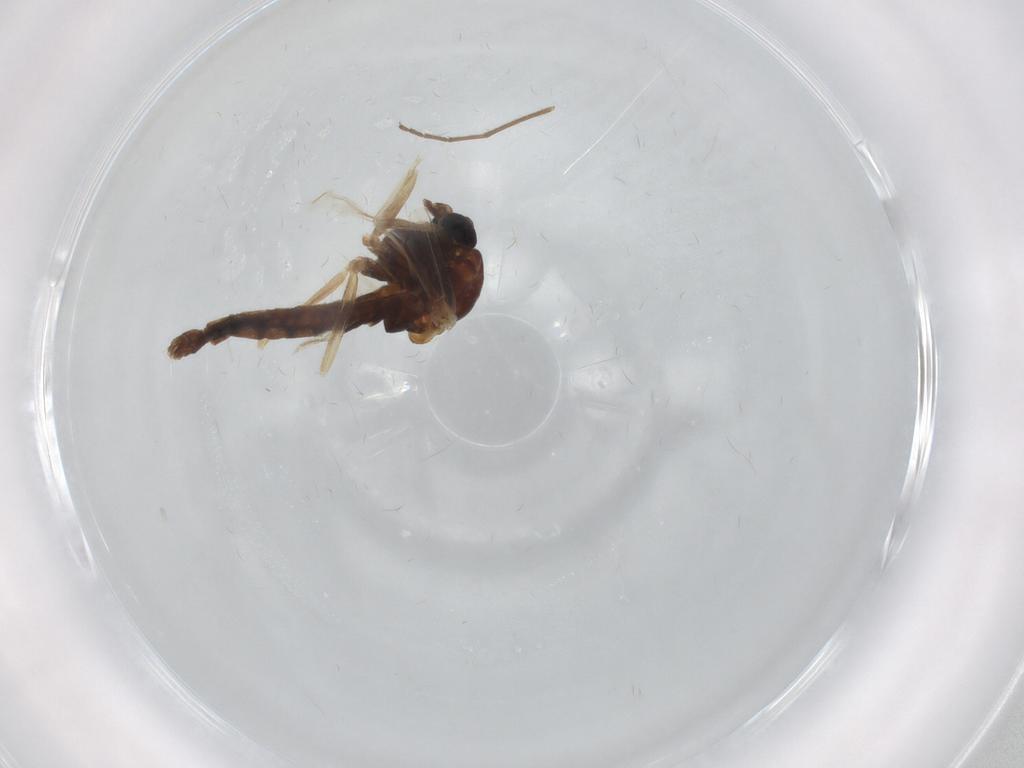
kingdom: Animalia
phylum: Arthropoda
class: Insecta
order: Diptera
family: Chironomidae
